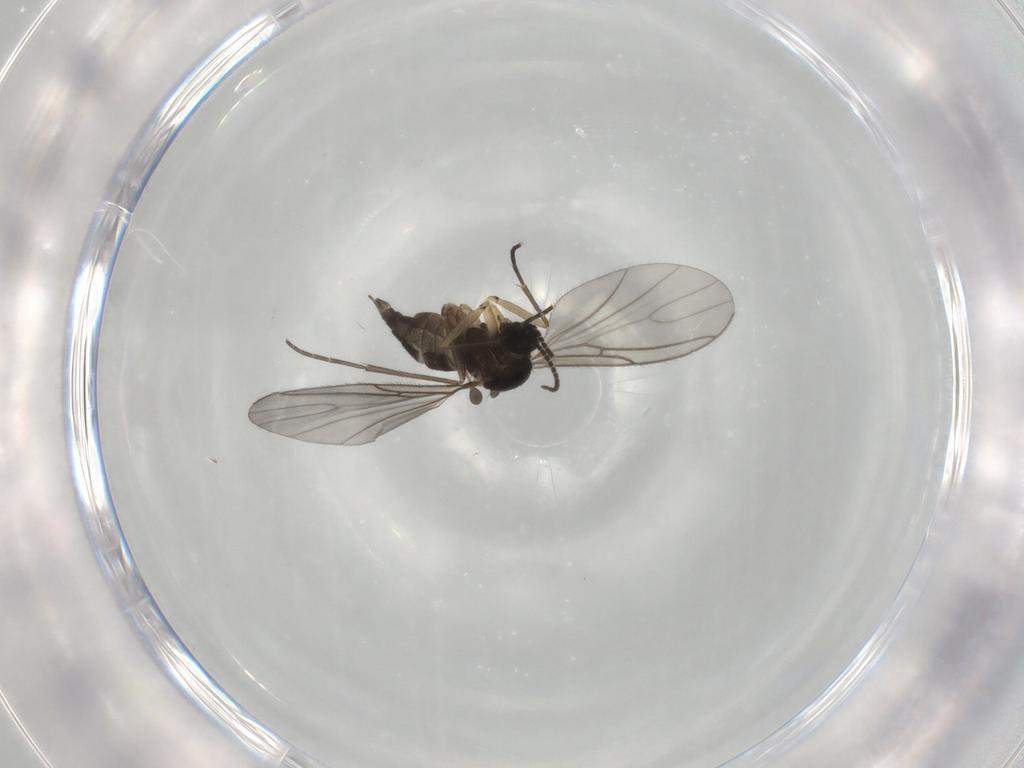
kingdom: Animalia
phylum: Arthropoda
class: Insecta
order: Diptera
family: Sciaridae
